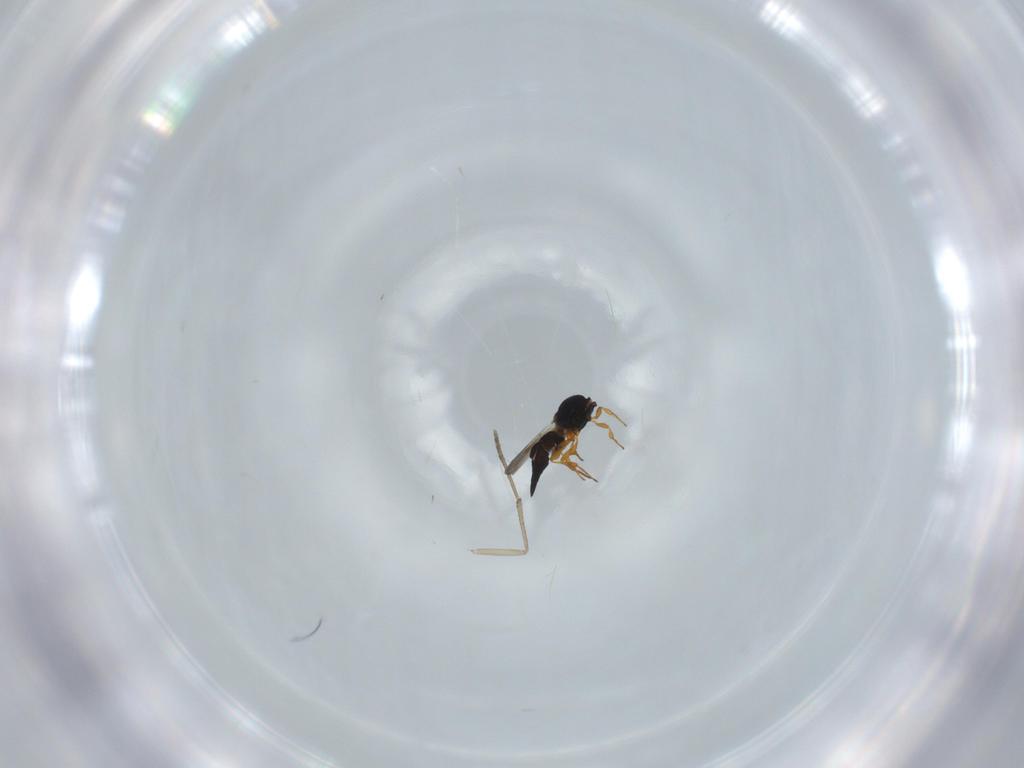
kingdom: Animalia
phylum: Arthropoda
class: Insecta
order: Hymenoptera
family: Platygastridae
